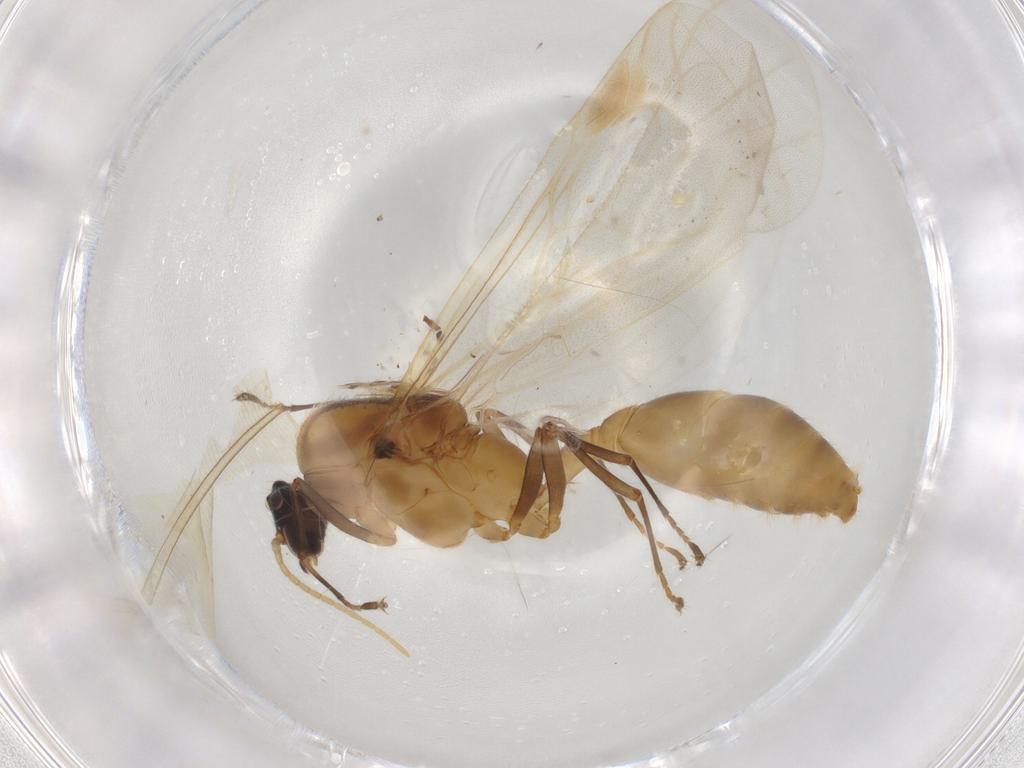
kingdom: Animalia
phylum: Arthropoda
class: Insecta
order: Hymenoptera
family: Formicidae
